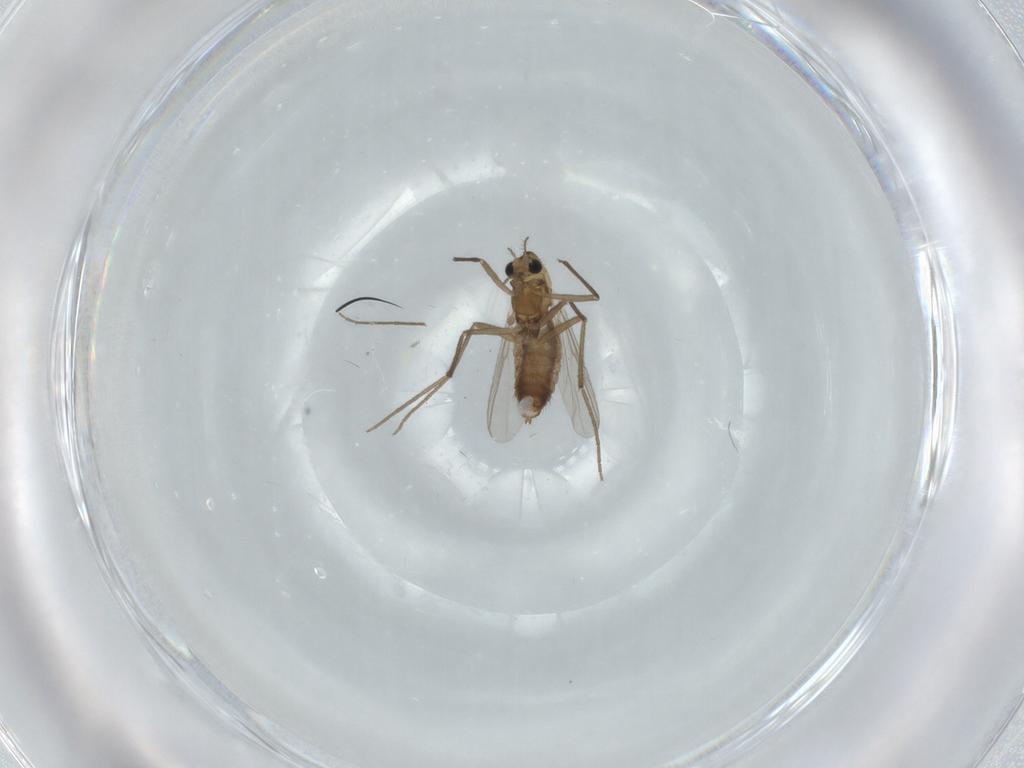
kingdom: Animalia
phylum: Arthropoda
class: Insecta
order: Diptera
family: Chironomidae
